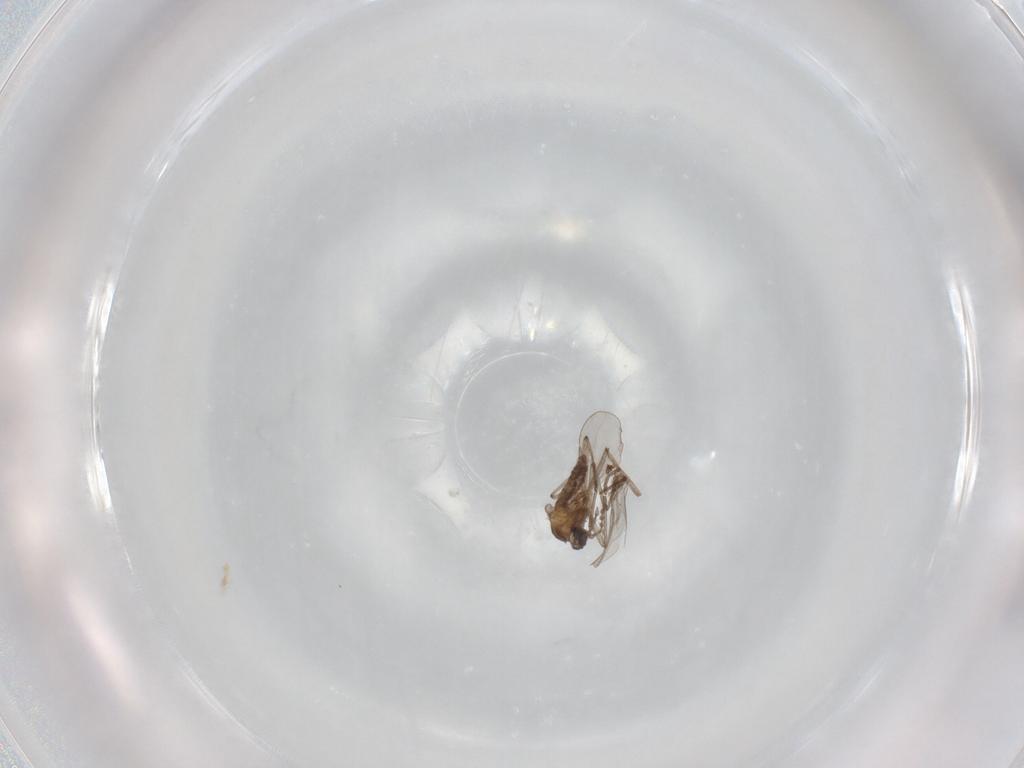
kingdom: Animalia
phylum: Arthropoda
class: Insecta
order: Diptera
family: Cecidomyiidae
